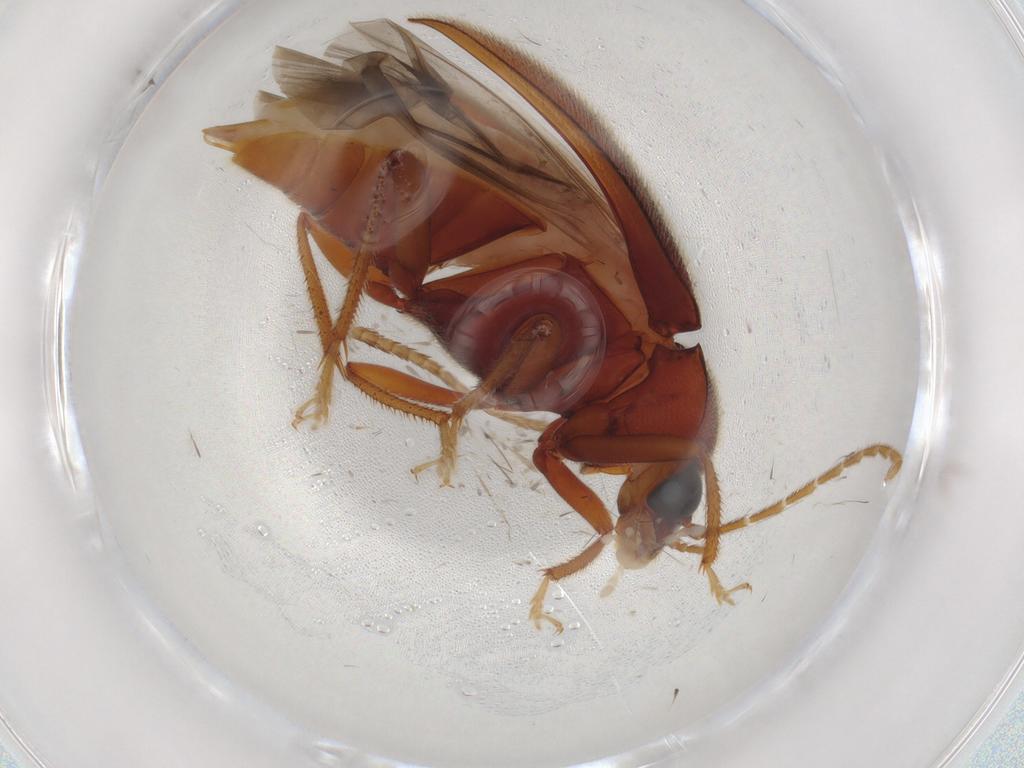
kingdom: Animalia
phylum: Arthropoda
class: Insecta
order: Coleoptera
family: Ptilodactylidae
